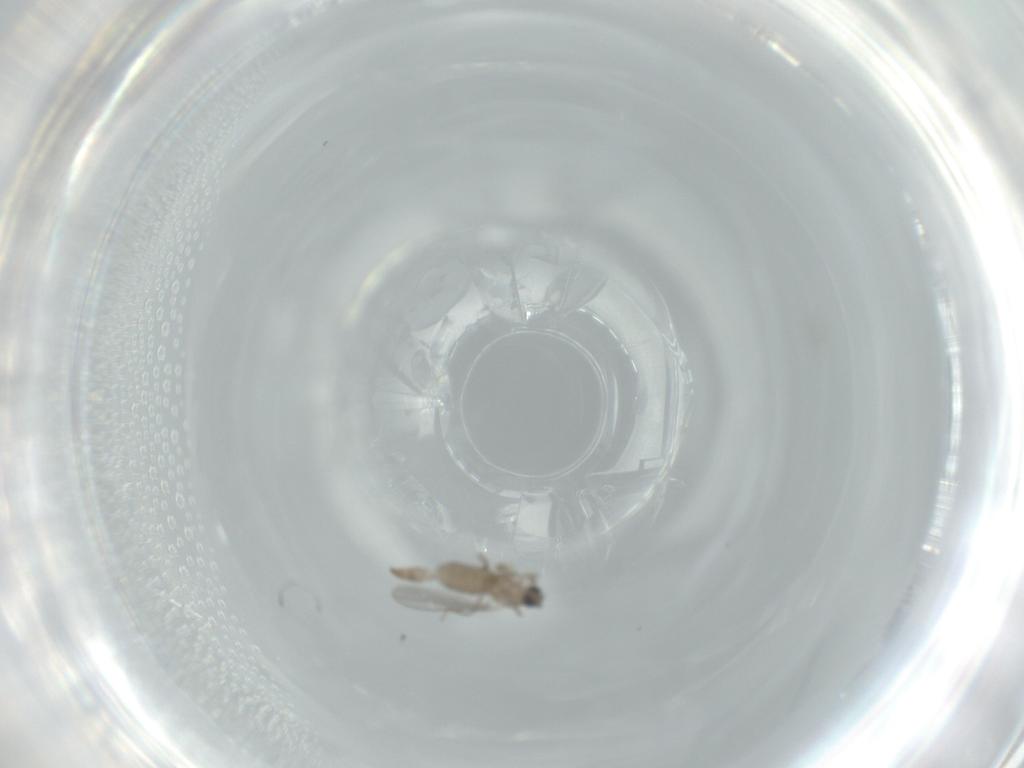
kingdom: Animalia
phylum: Arthropoda
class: Insecta
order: Diptera
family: Cecidomyiidae
